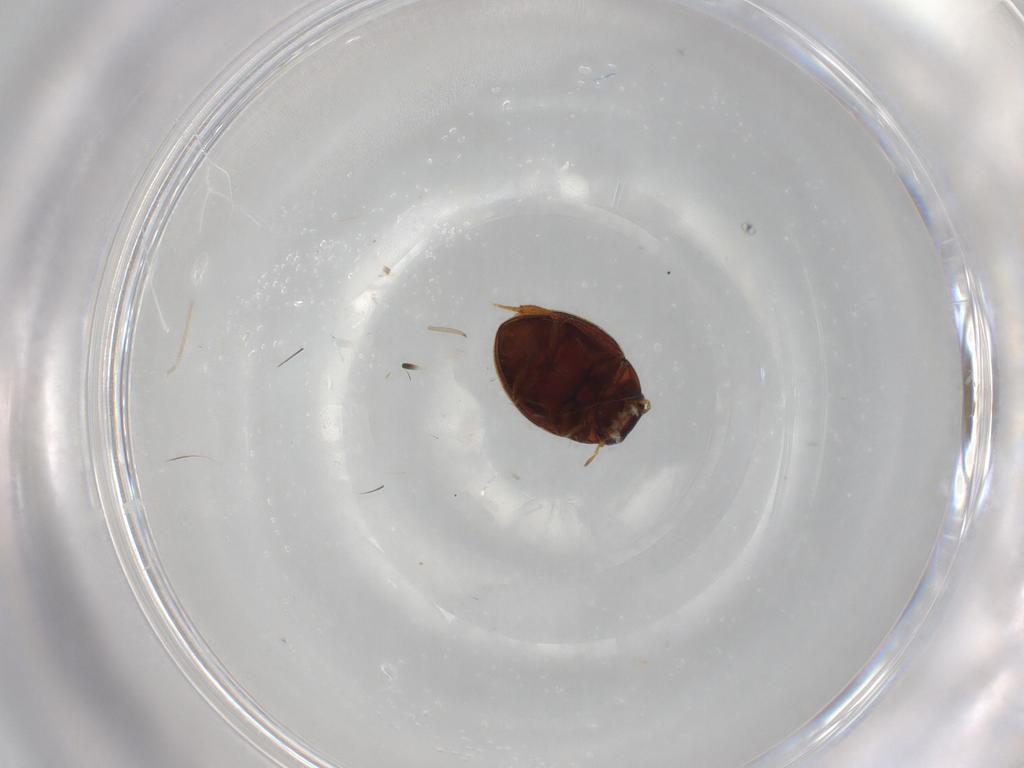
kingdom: Animalia
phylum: Arthropoda
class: Insecta
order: Coleoptera
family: Hydrophilidae
